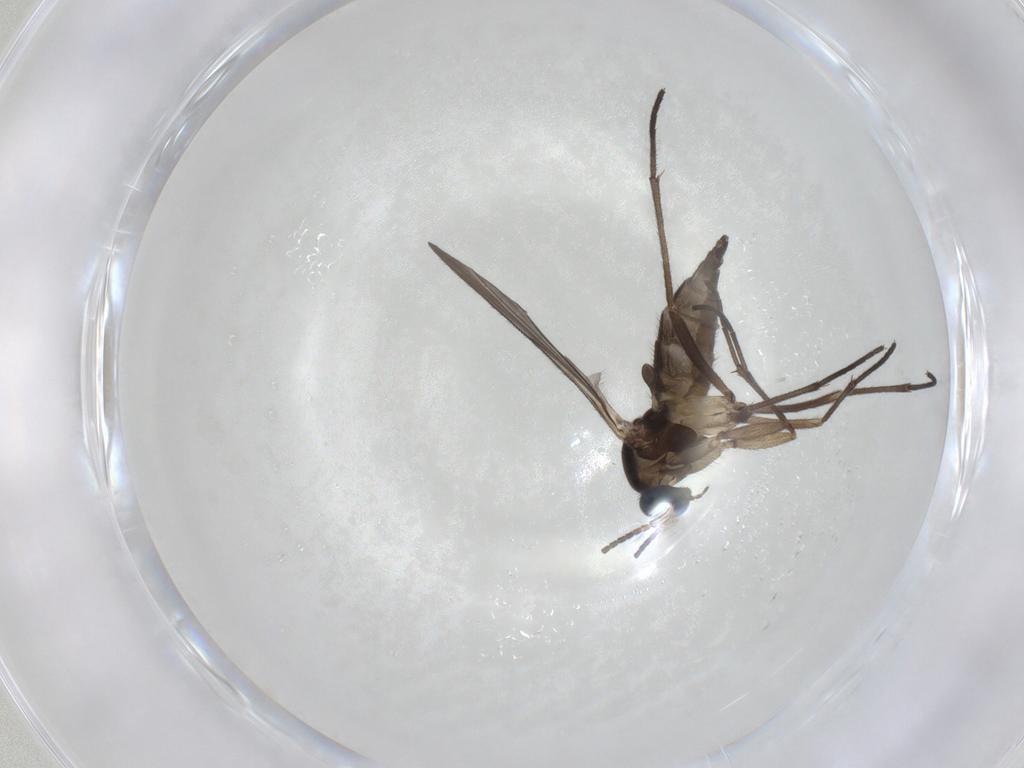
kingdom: Animalia
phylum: Arthropoda
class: Insecta
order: Diptera
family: Sciaridae
